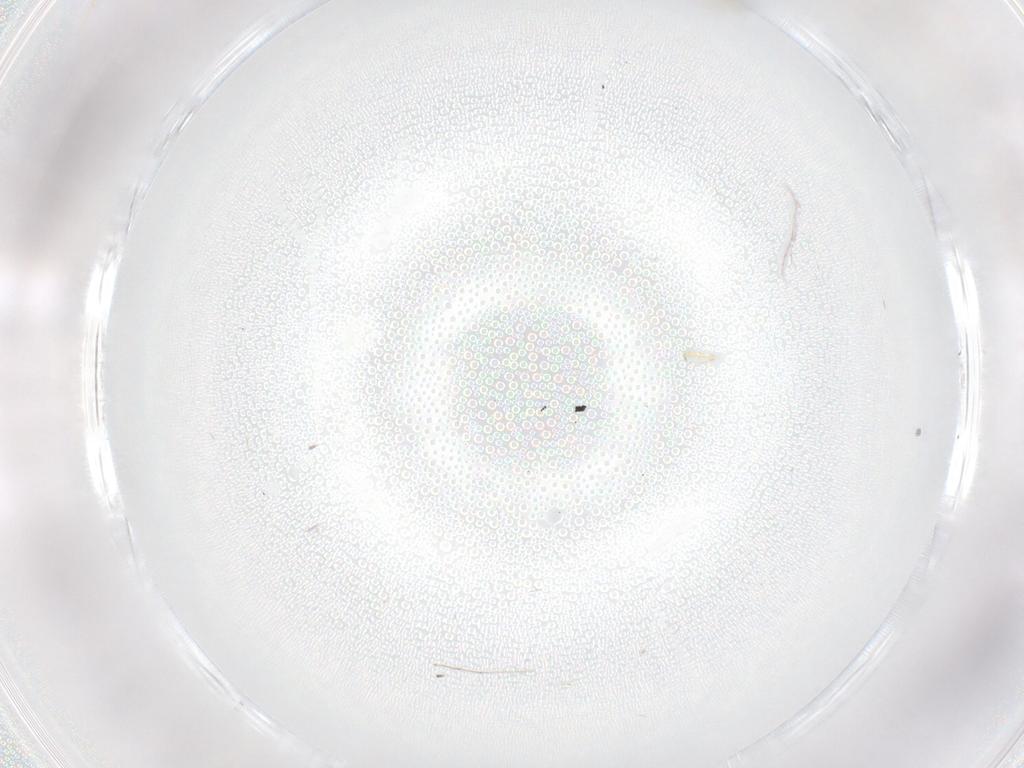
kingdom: Animalia
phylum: Arthropoda
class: Insecta
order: Diptera
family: Cecidomyiidae
